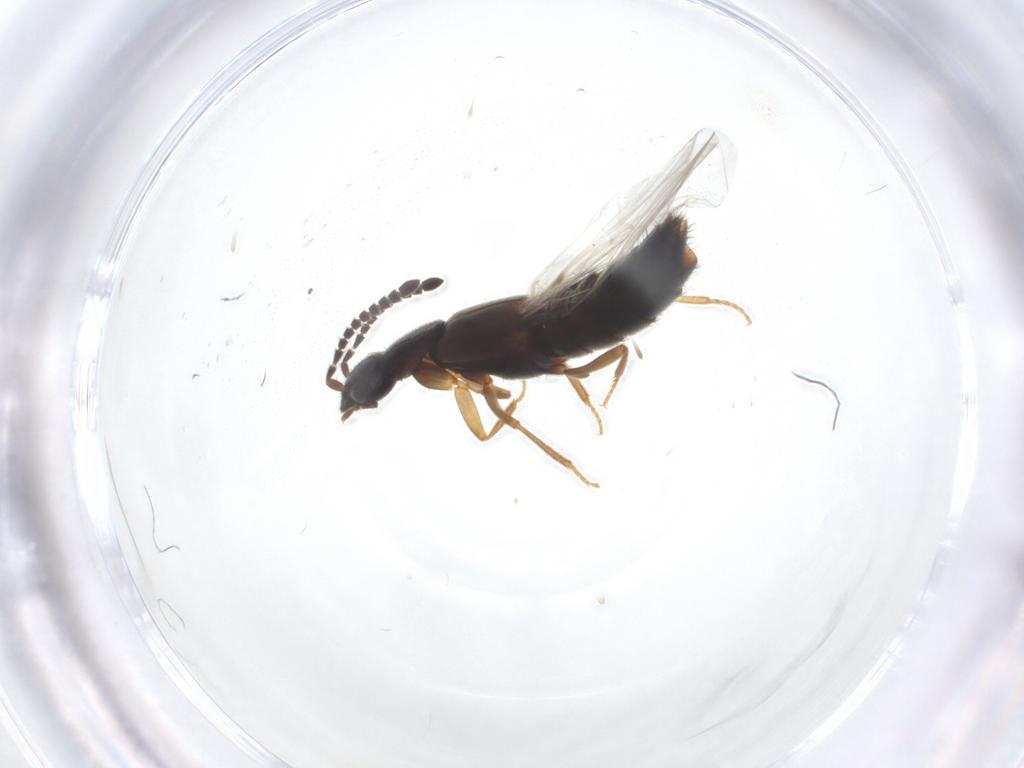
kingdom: Animalia
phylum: Arthropoda
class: Insecta
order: Coleoptera
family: Staphylinidae
